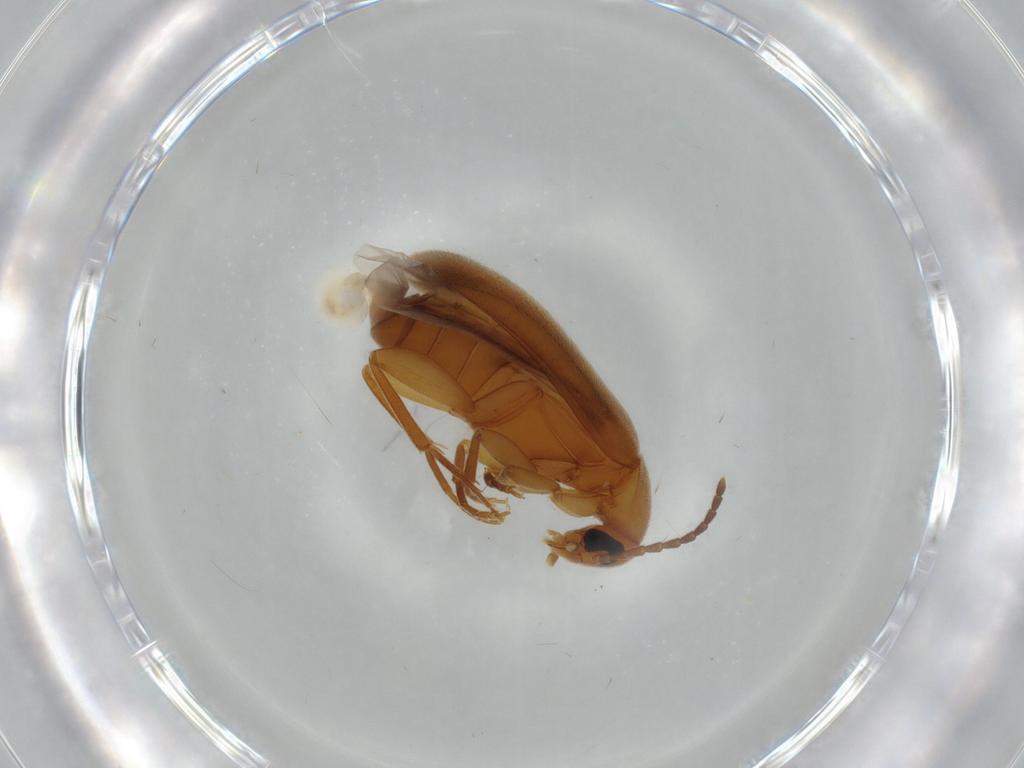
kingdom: Animalia
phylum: Arthropoda
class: Insecta
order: Coleoptera
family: Scraptiidae
